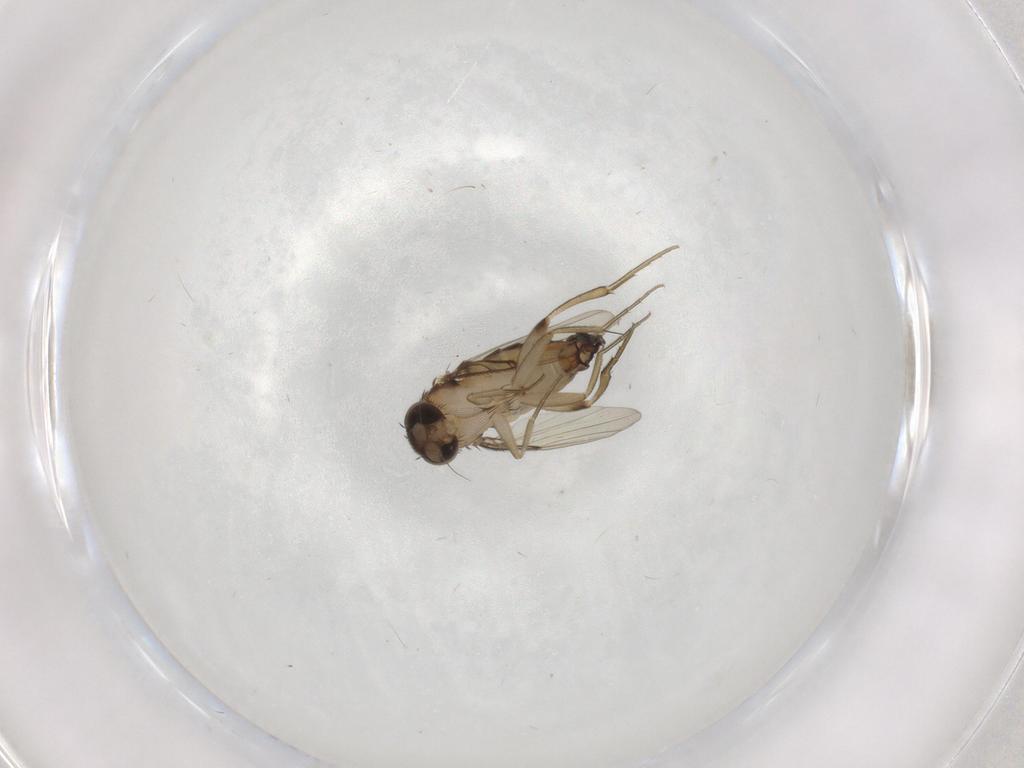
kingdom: Animalia
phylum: Arthropoda
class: Insecta
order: Diptera
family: Phoridae
